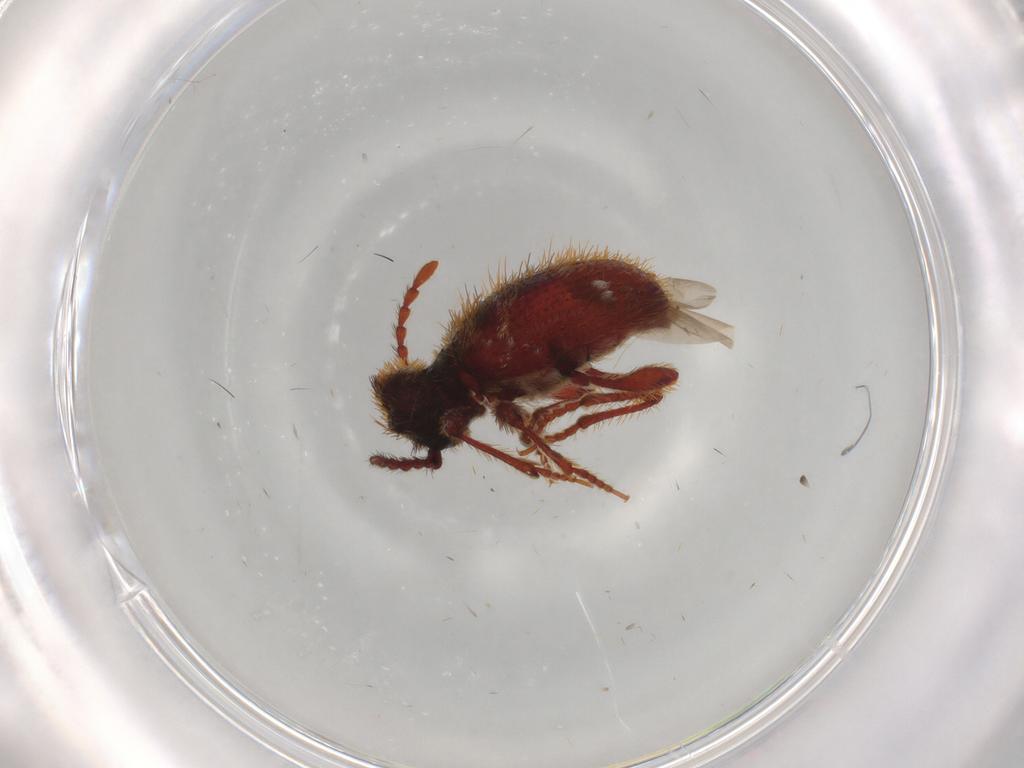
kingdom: Animalia
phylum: Arthropoda
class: Insecta
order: Coleoptera
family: Ptinidae
